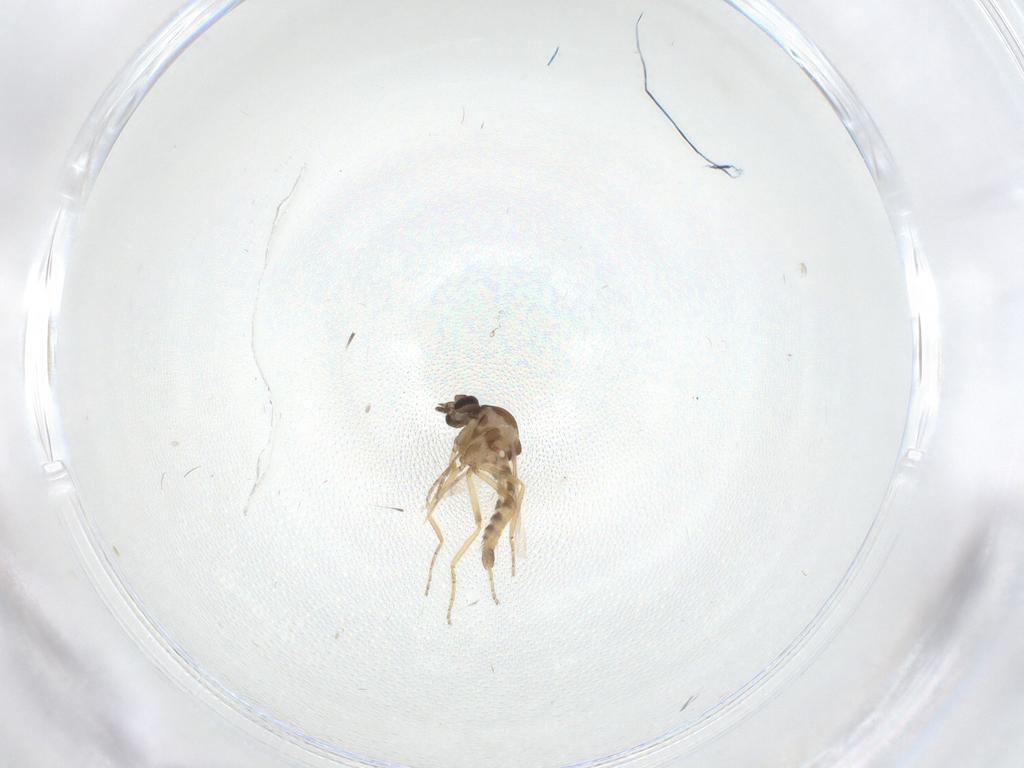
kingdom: Animalia
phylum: Arthropoda
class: Insecta
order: Diptera
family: Ceratopogonidae
